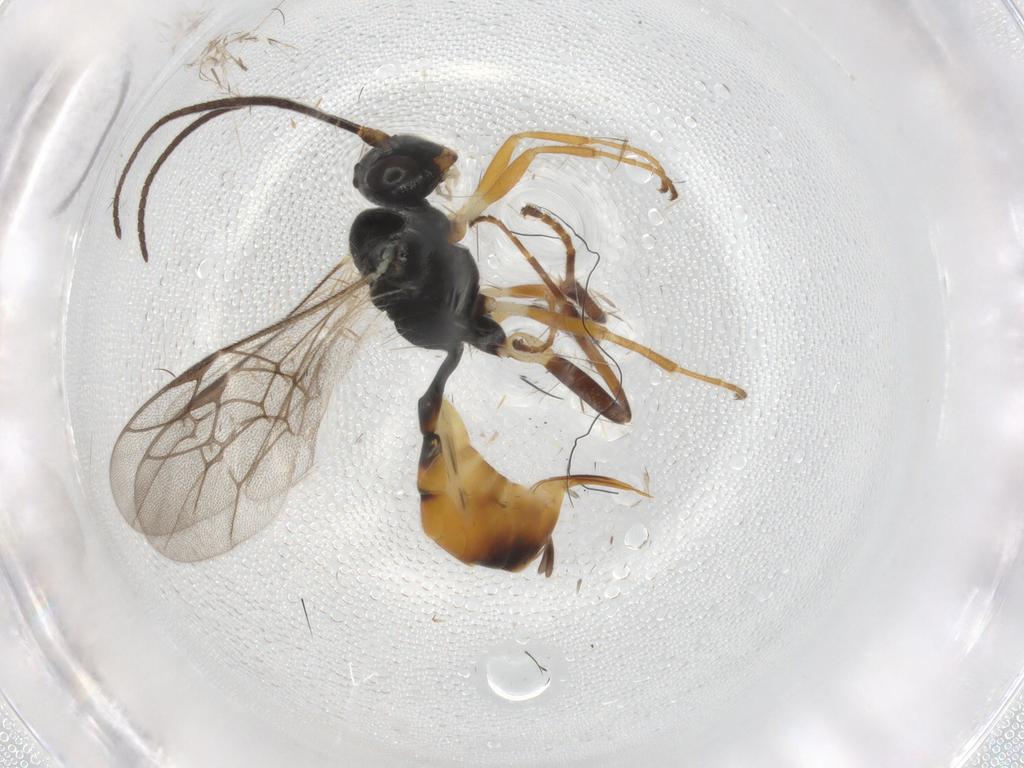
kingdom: Animalia
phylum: Arthropoda
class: Insecta
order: Hymenoptera
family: Ichneumonidae
